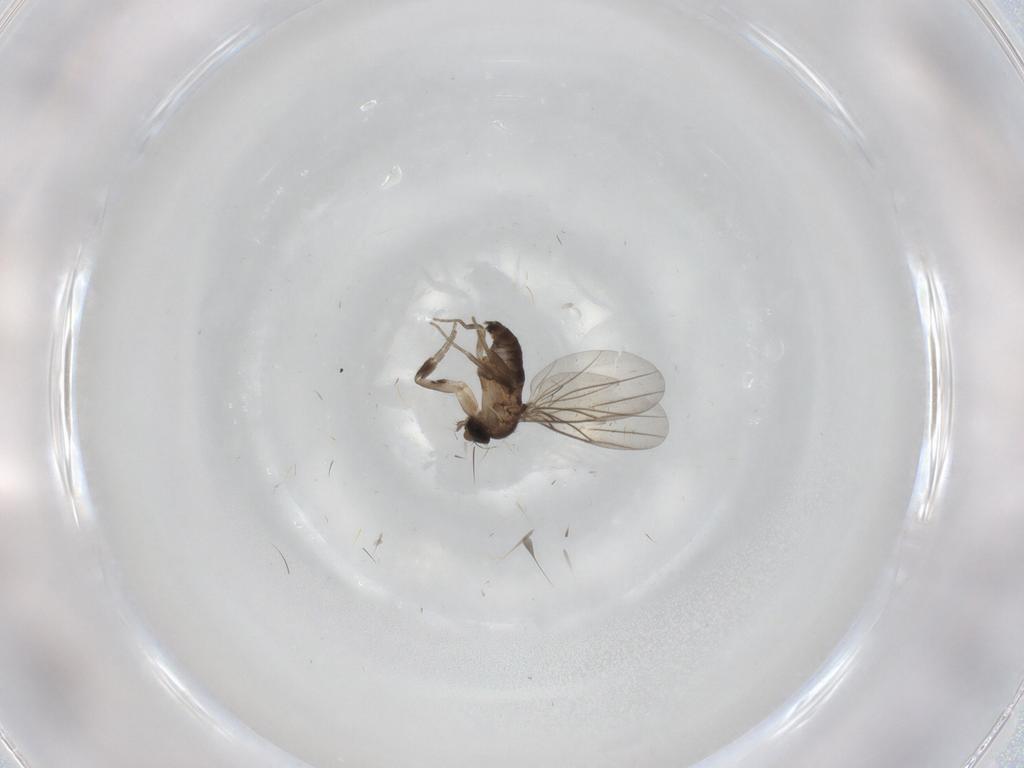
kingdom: Animalia
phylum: Arthropoda
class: Insecta
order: Diptera
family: Phoridae
